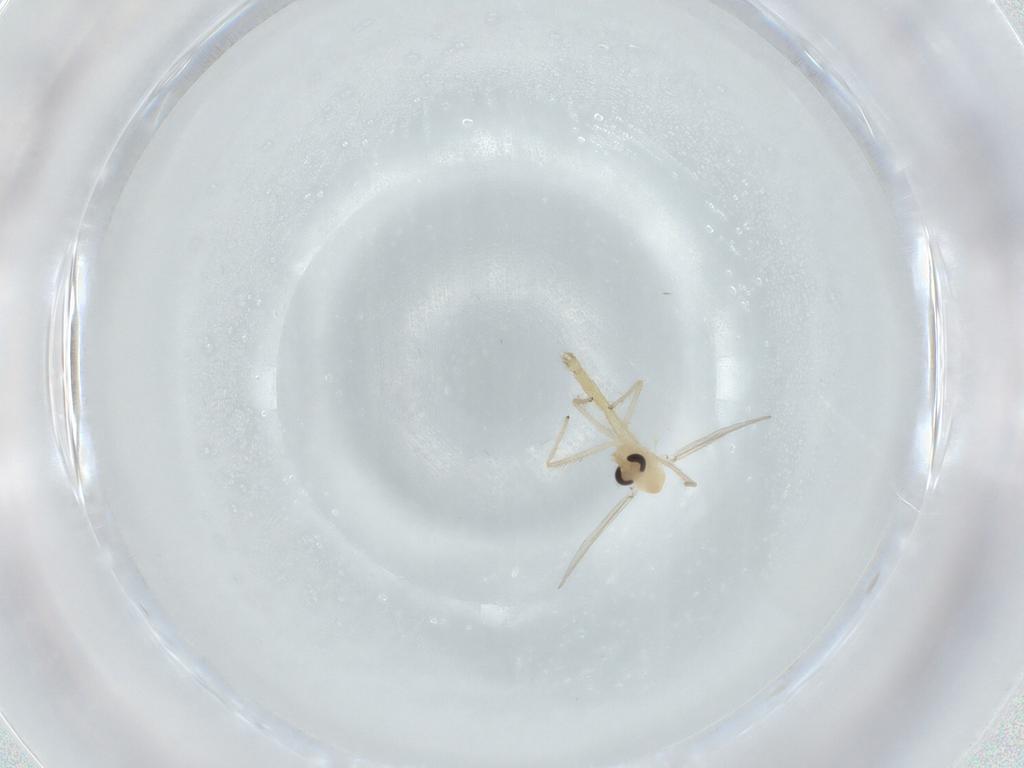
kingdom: Animalia
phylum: Arthropoda
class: Insecta
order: Diptera
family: Chironomidae
